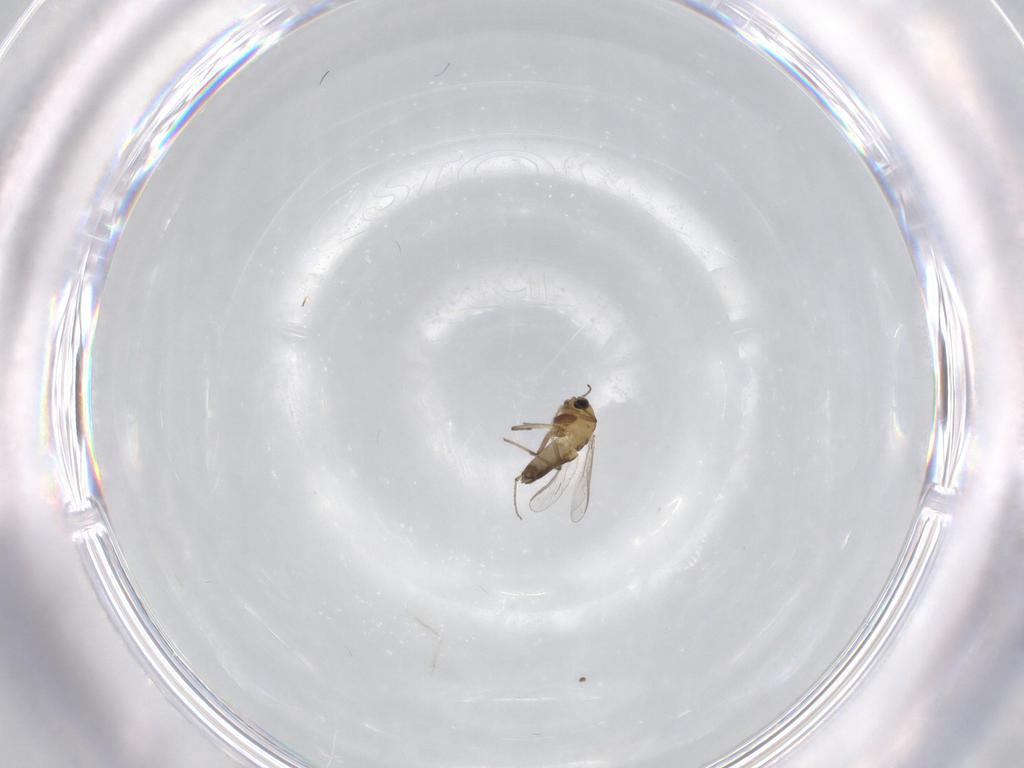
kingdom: Animalia
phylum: Arthropoda
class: Insecta
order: Diptera
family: Chironomidae
